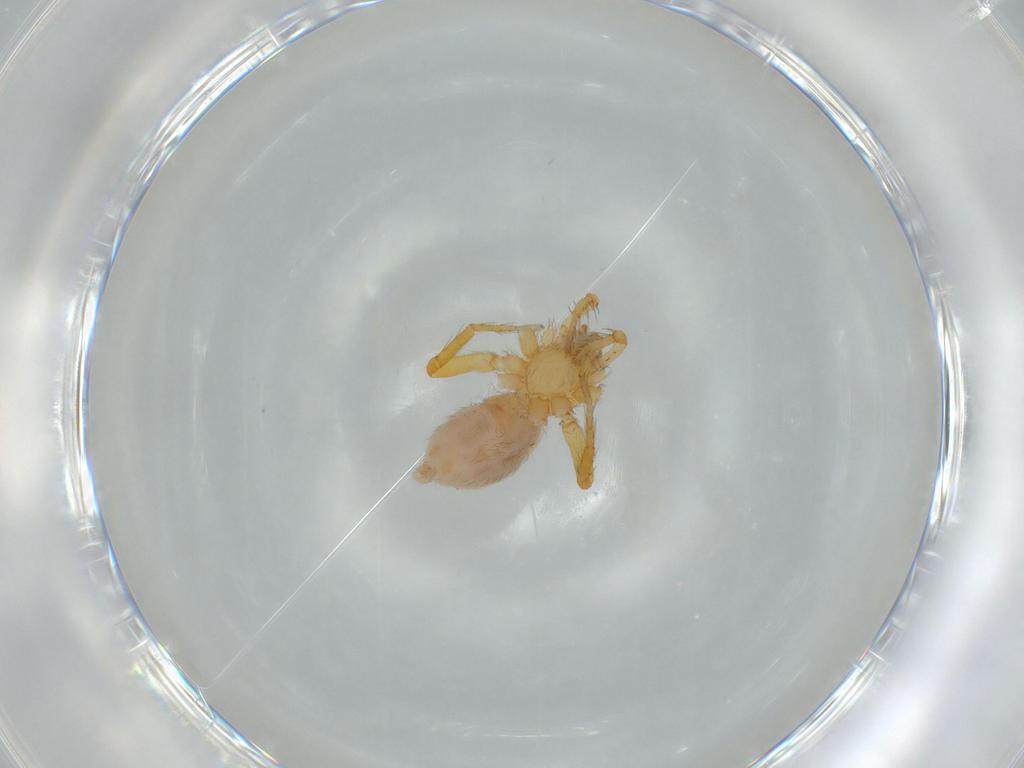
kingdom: Animalia
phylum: Arthropoda
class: Arachnida
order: Araneae
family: Oonopidae
